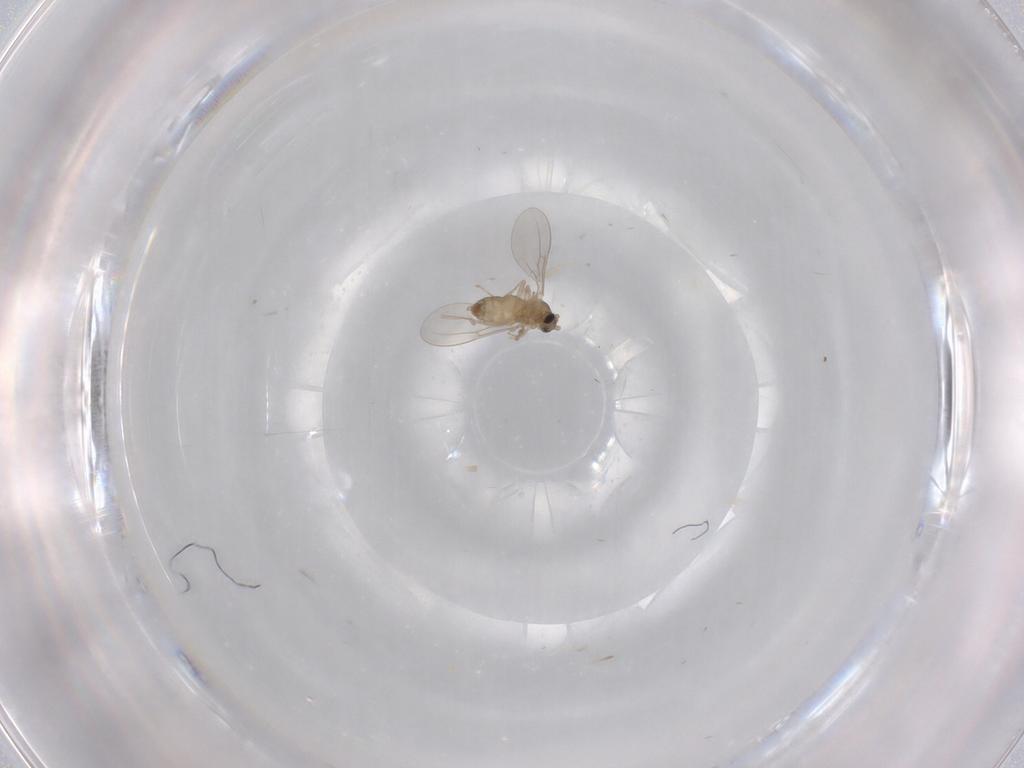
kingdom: Animalia
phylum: Arthropoda
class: Insecta
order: Diptera
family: Cecidomyiidae
